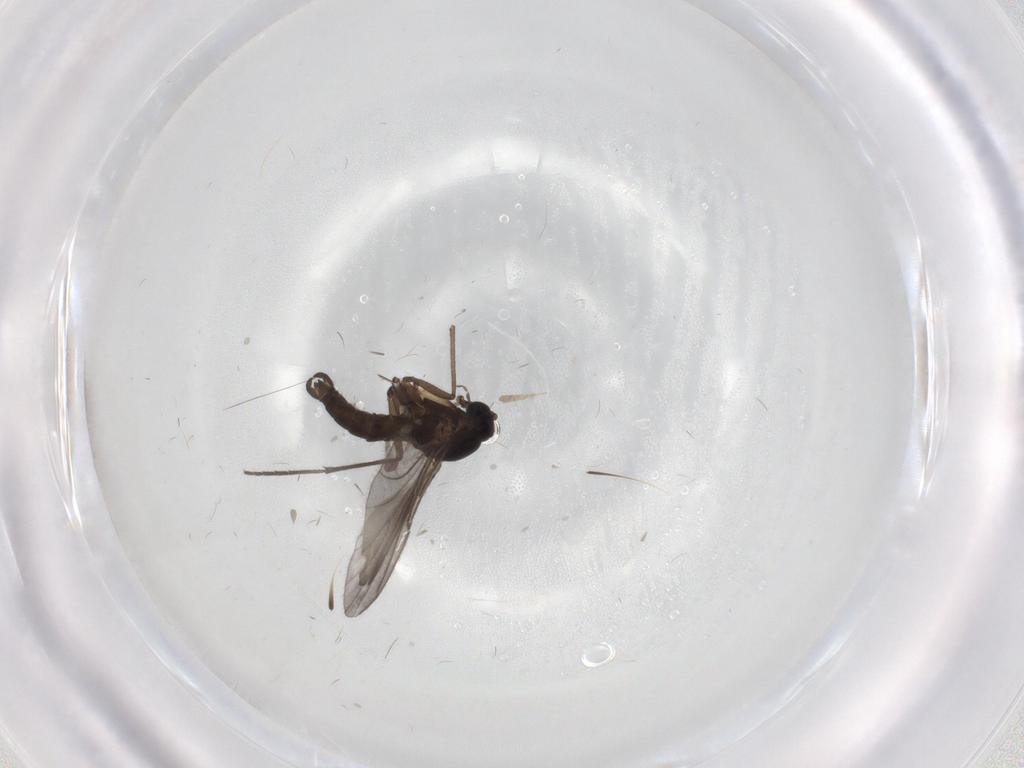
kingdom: Animalia
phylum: Arthropoda
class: Insecta
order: Diptera
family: Sciaridae
